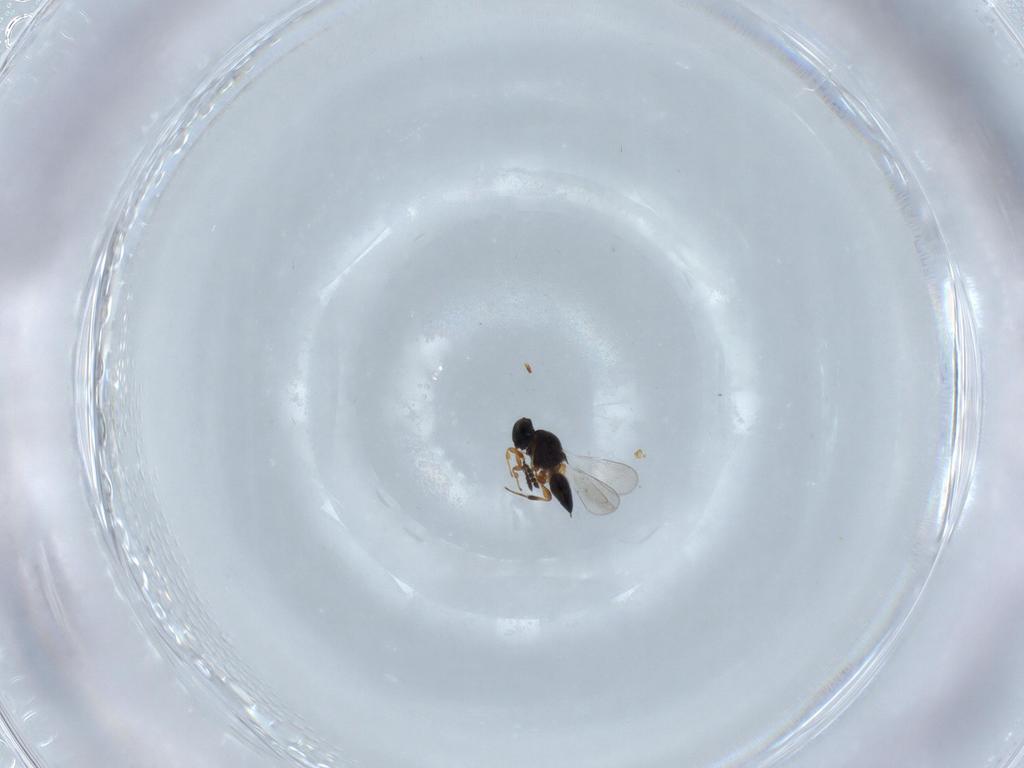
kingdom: Animalia
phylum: Arthropoda
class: Insecta
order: Hymenoptera
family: Platygastridae
